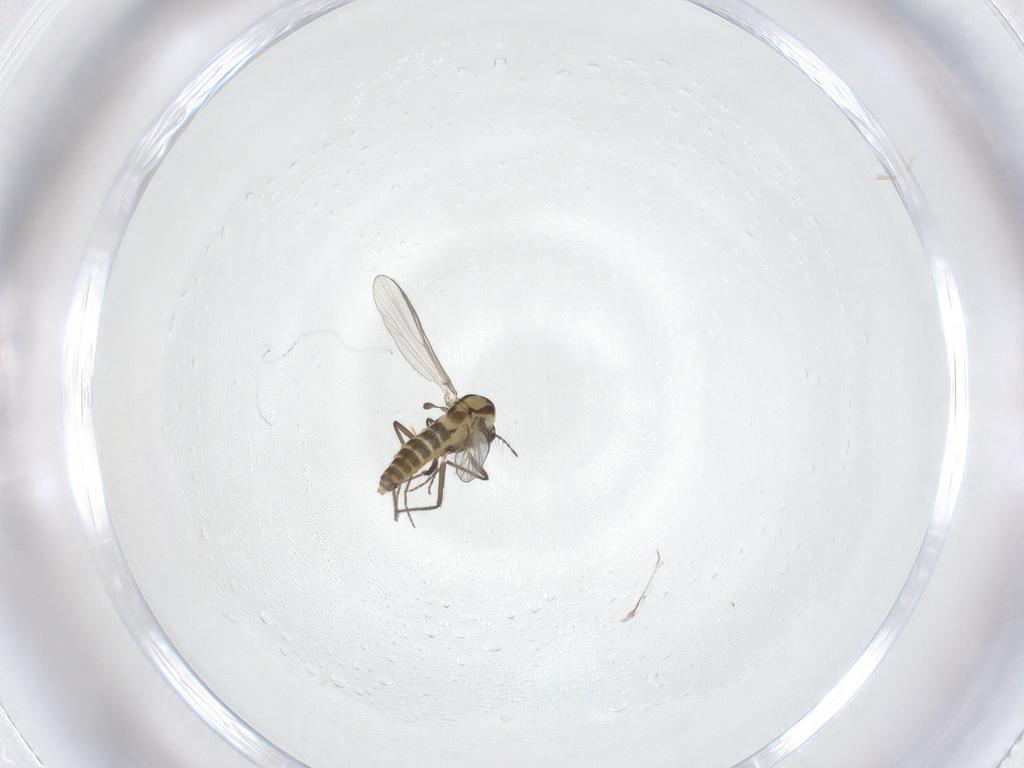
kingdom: Animalia
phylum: Arthropoda
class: Insecta
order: Diptera
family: Chironomidae
